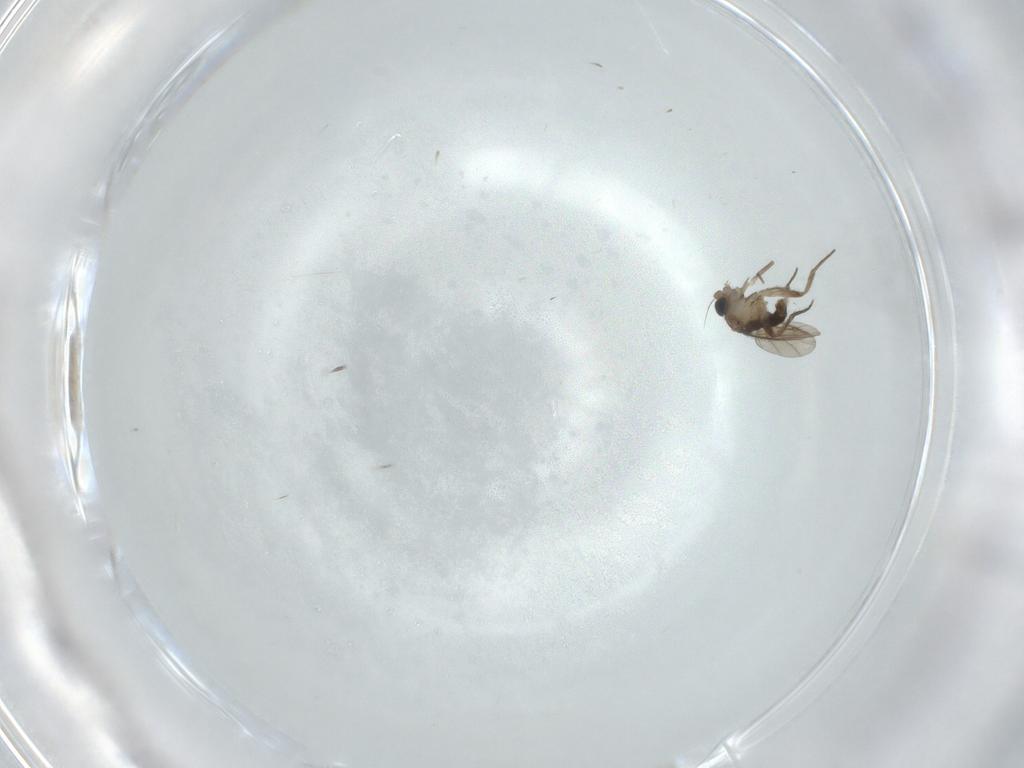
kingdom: Animalia
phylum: Arthropoda
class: Insecta
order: Diptera
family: Phoridae
